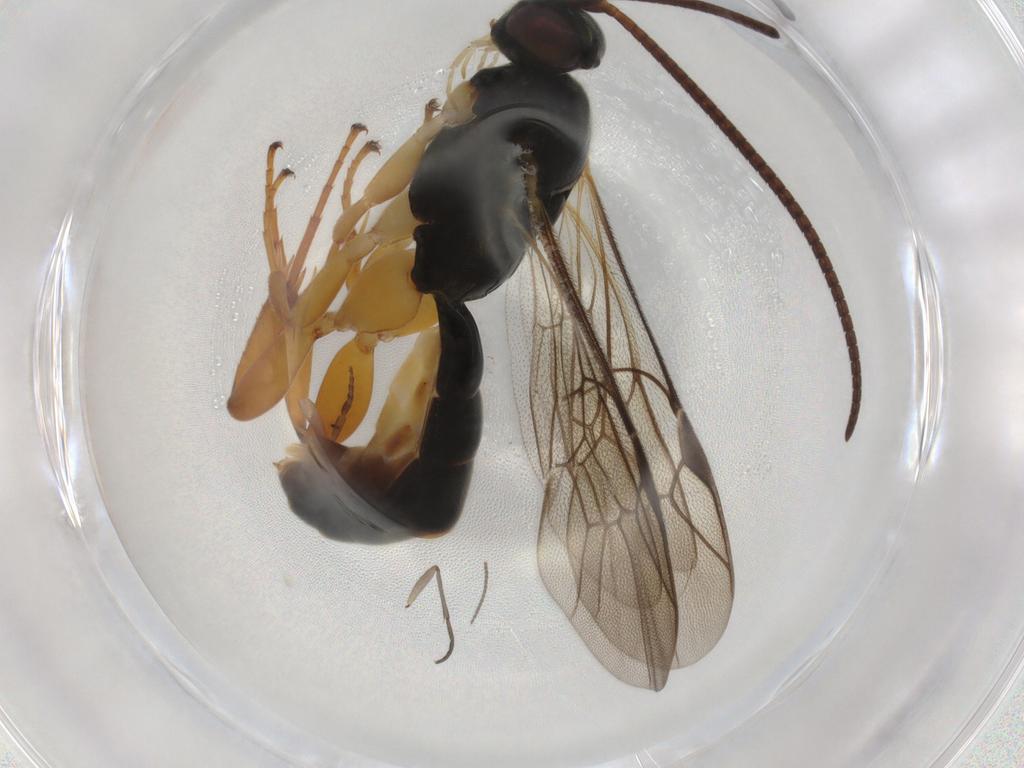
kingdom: Animalia
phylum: Arthropoda
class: Insecta
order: Hymenoptera
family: Ichneumonidae
